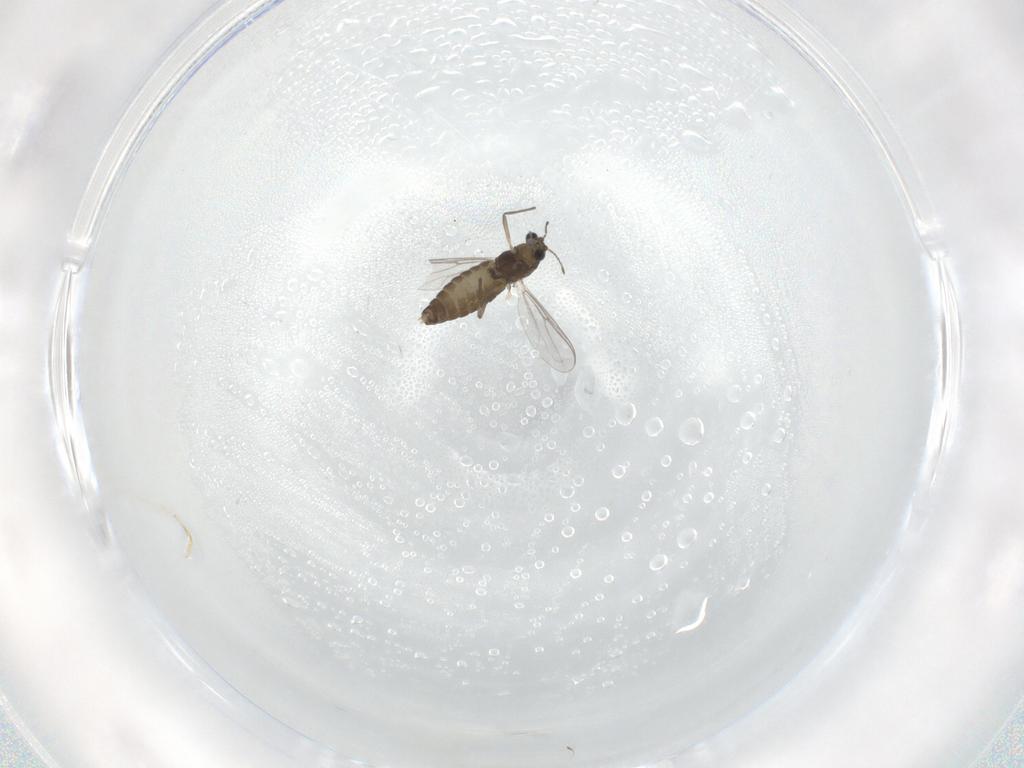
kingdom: Animalia
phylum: Arthropoda
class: Insecta
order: Diptera
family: Chironomidae
